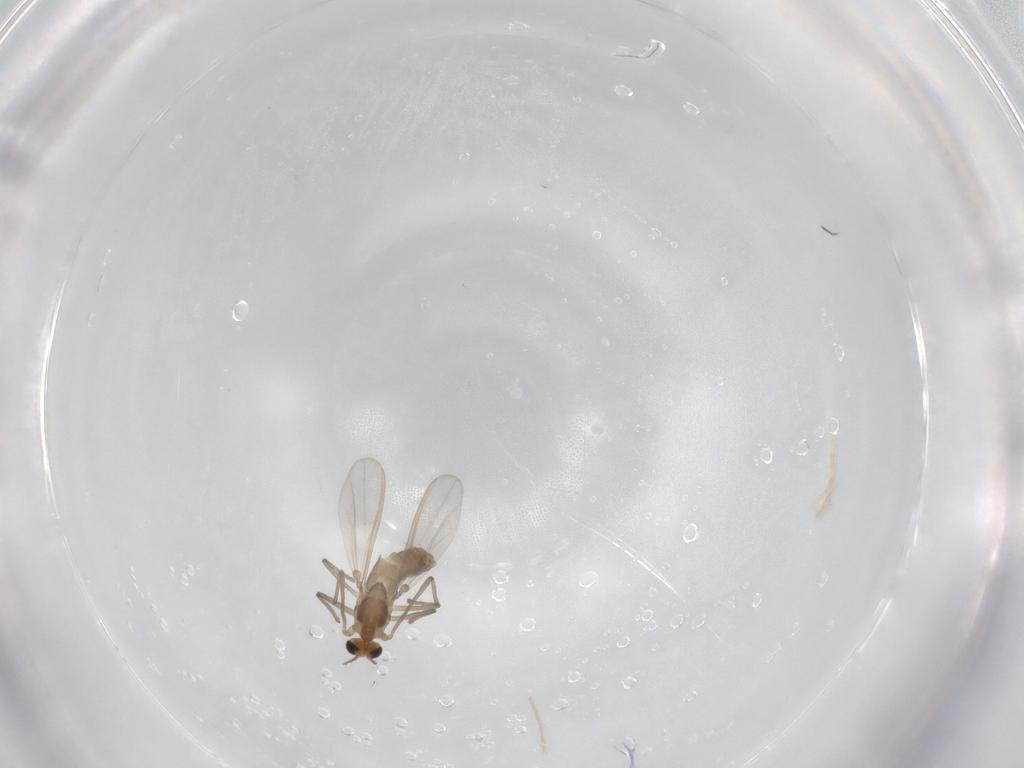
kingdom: Animalia
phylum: Arthropoda
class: Insecta
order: Diptera
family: Chironomidae
